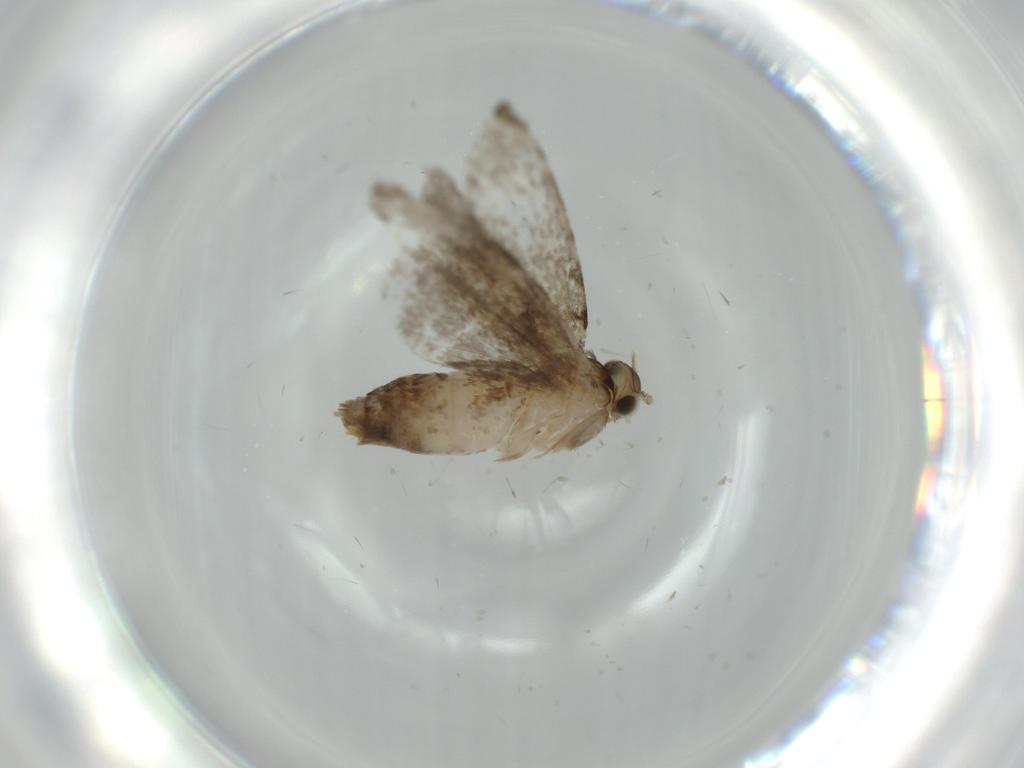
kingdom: Animalia
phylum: Arthropoda
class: Insecta
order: Lepidoptera
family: Tineidae
